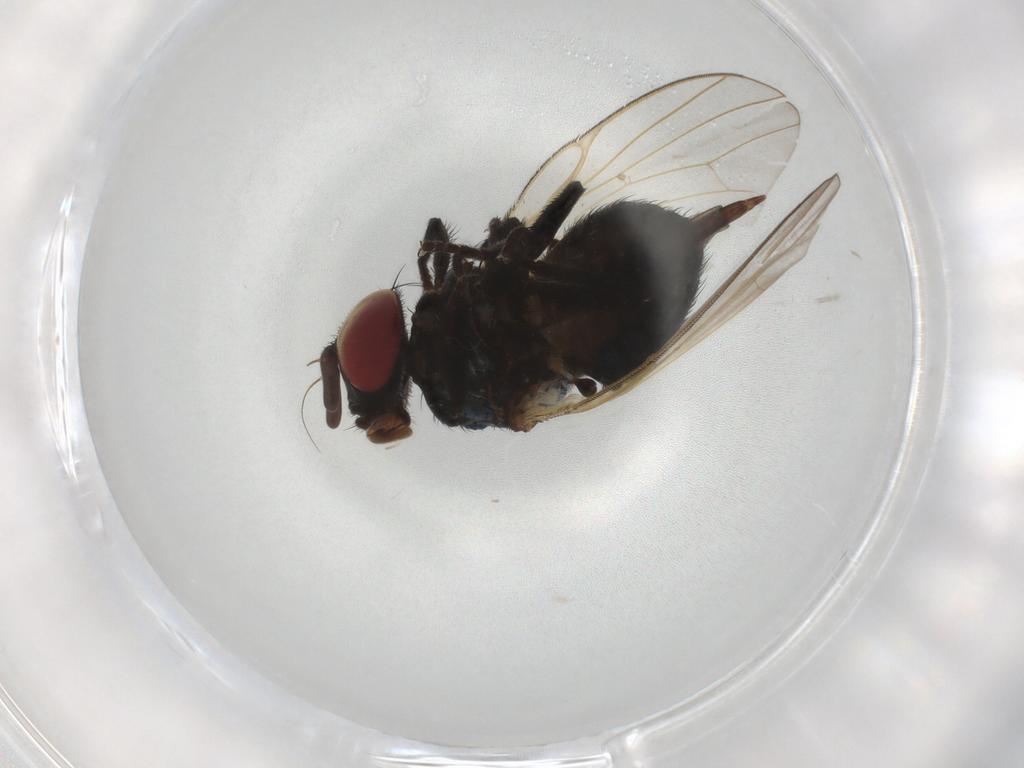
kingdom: Animalia
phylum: Arthropoda
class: Insecta
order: Diptera
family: Lonchaeidae
